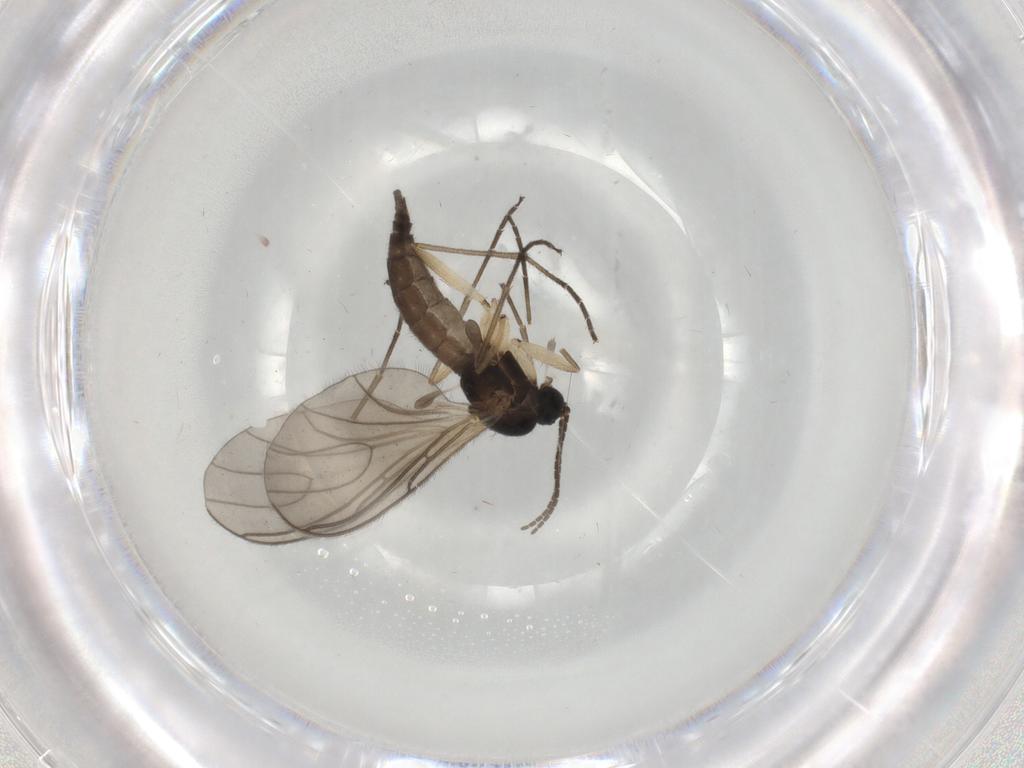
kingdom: Animalia
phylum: Arthropoda
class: Insecta
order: Diptera
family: Sciaridae
